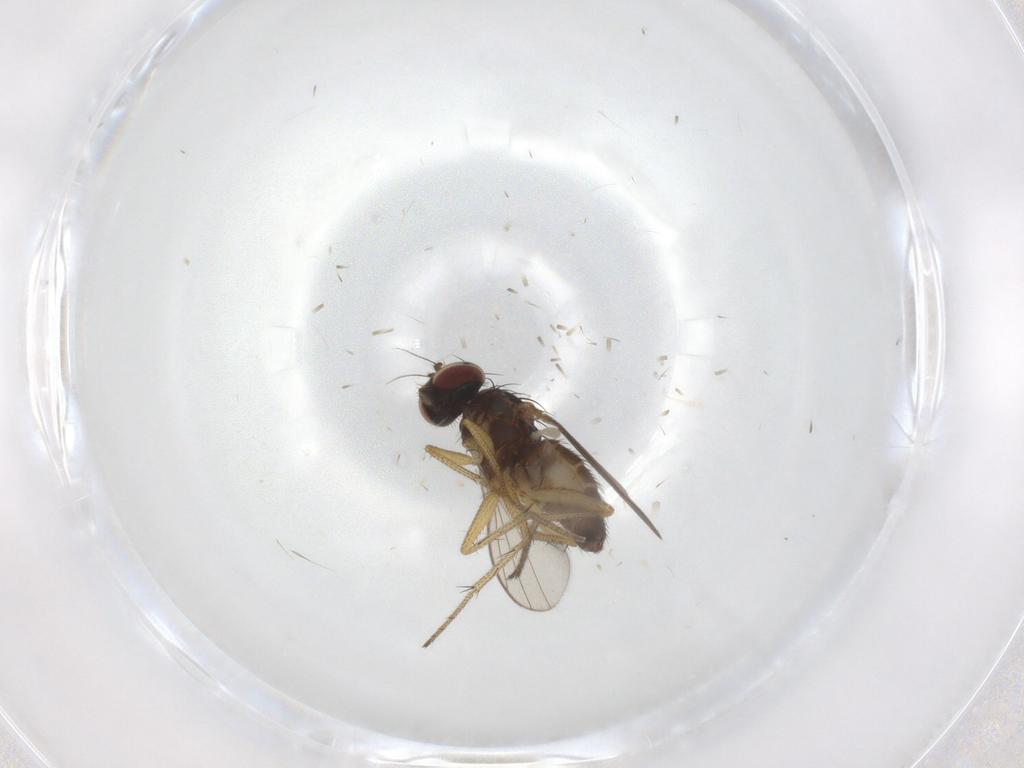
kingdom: Animalia
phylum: Arthropoda
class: Insecta
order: Diptera
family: Dolichopodidae
